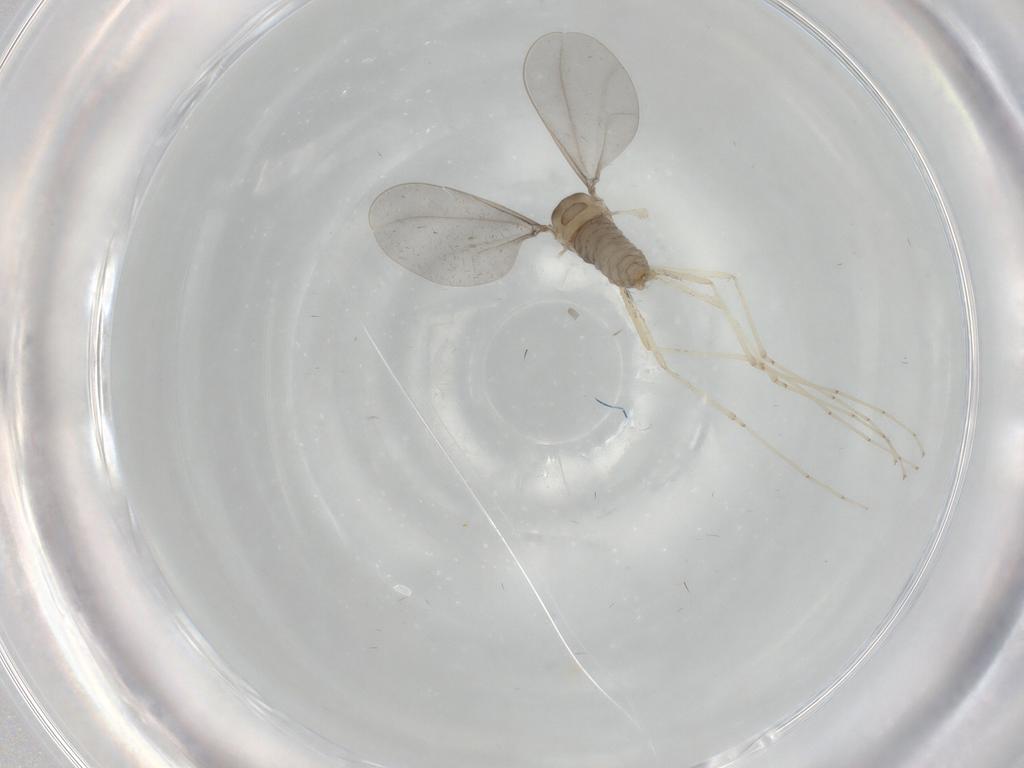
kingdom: Animalia
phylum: Arthropoda
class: Insecta
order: Diptera
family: Cecidomyiidae
